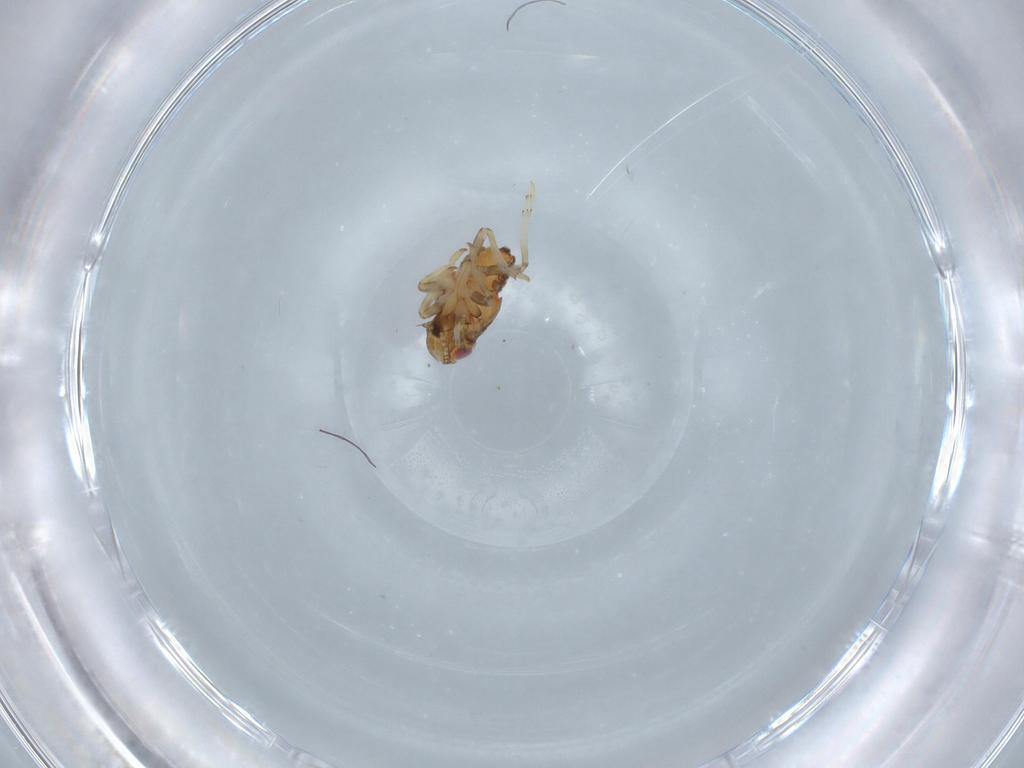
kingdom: Animalia
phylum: Arthropoda
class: Insecta
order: Hemiptera
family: Issidae
